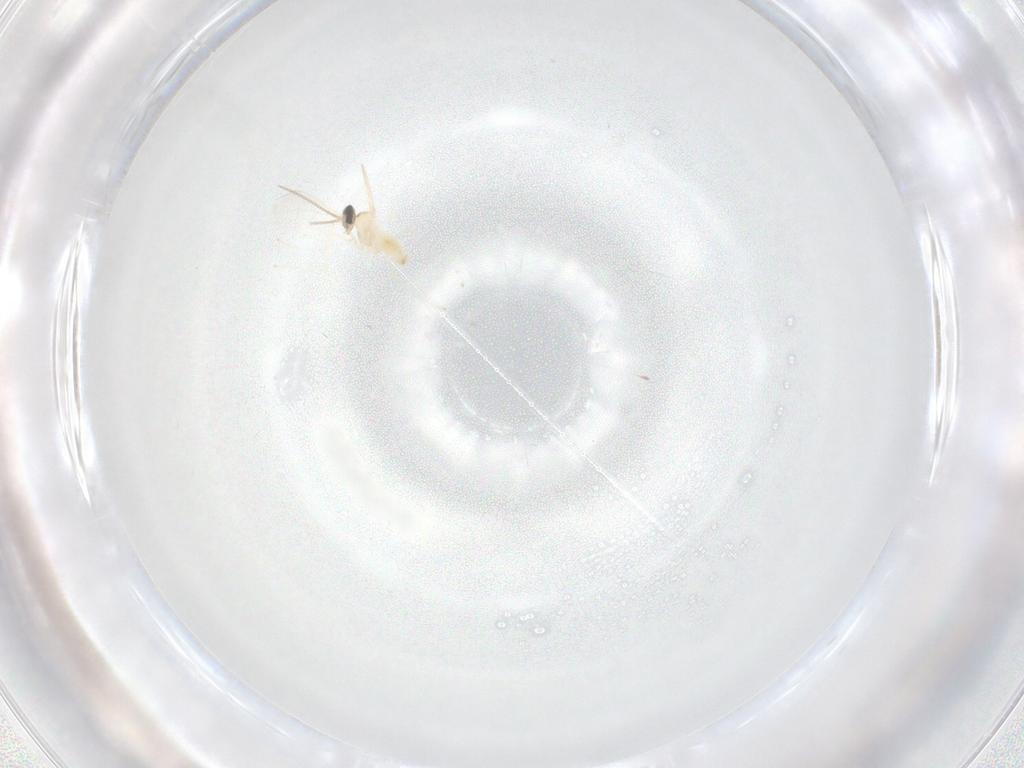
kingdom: Animalia
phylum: Arthropoda
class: Insecta
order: Diptera
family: Cecidomyiidae
